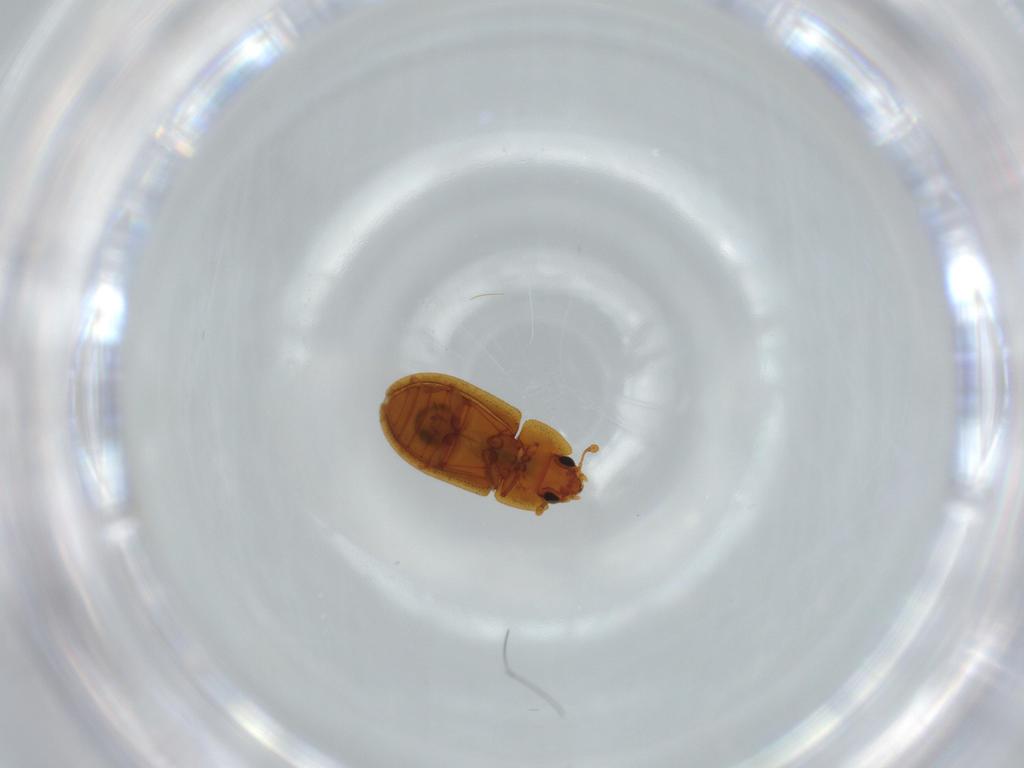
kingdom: Animalia
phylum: Arthropoda
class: Insecta
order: Coleoptera
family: Zopheridae
